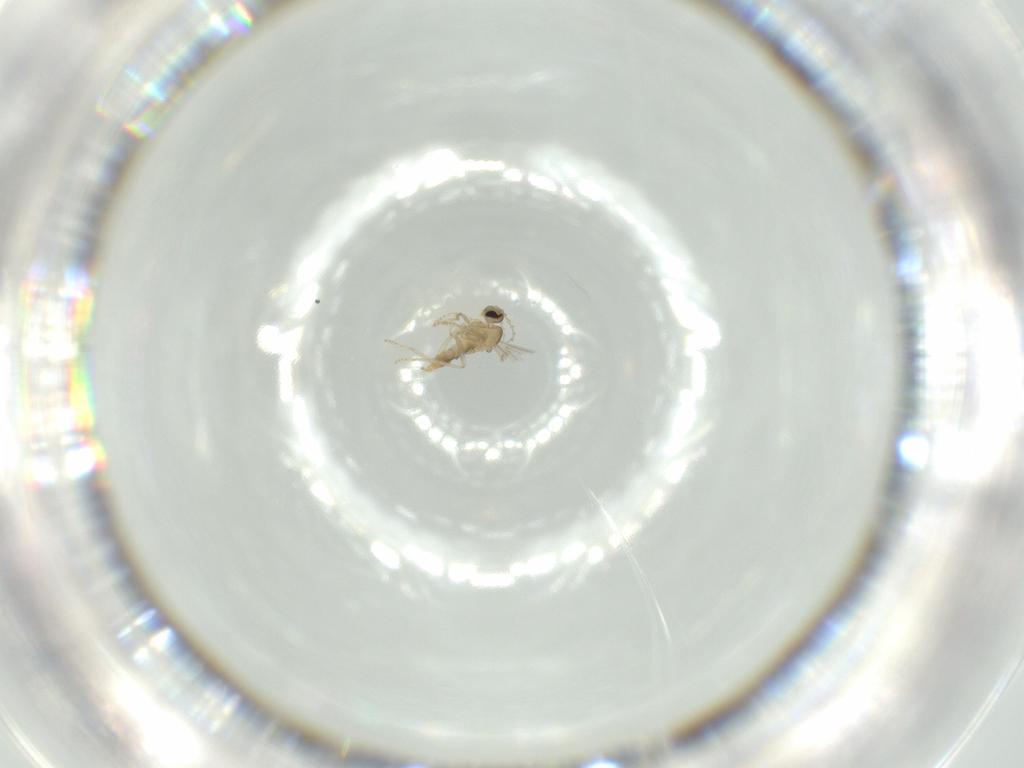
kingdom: Animalia
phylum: Arthropoda
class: Insecta
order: Diptera
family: Cecidomyiidae
